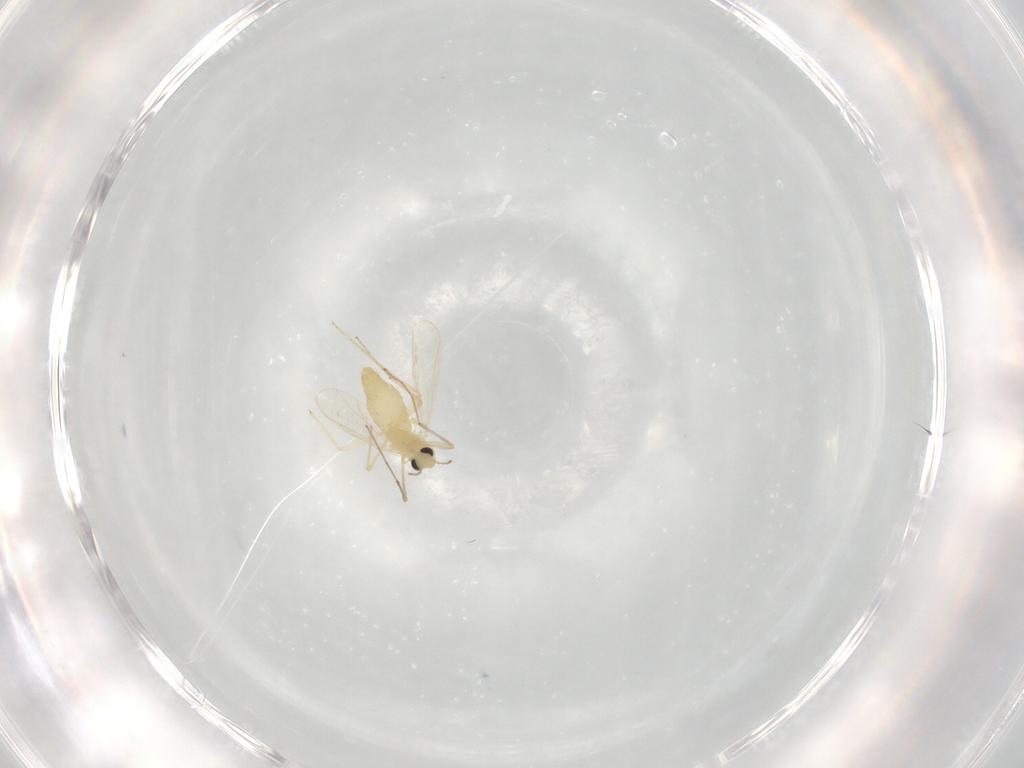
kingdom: Animalia
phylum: Arthropoda
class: Insecta
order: Diptera
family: Chironomidae
